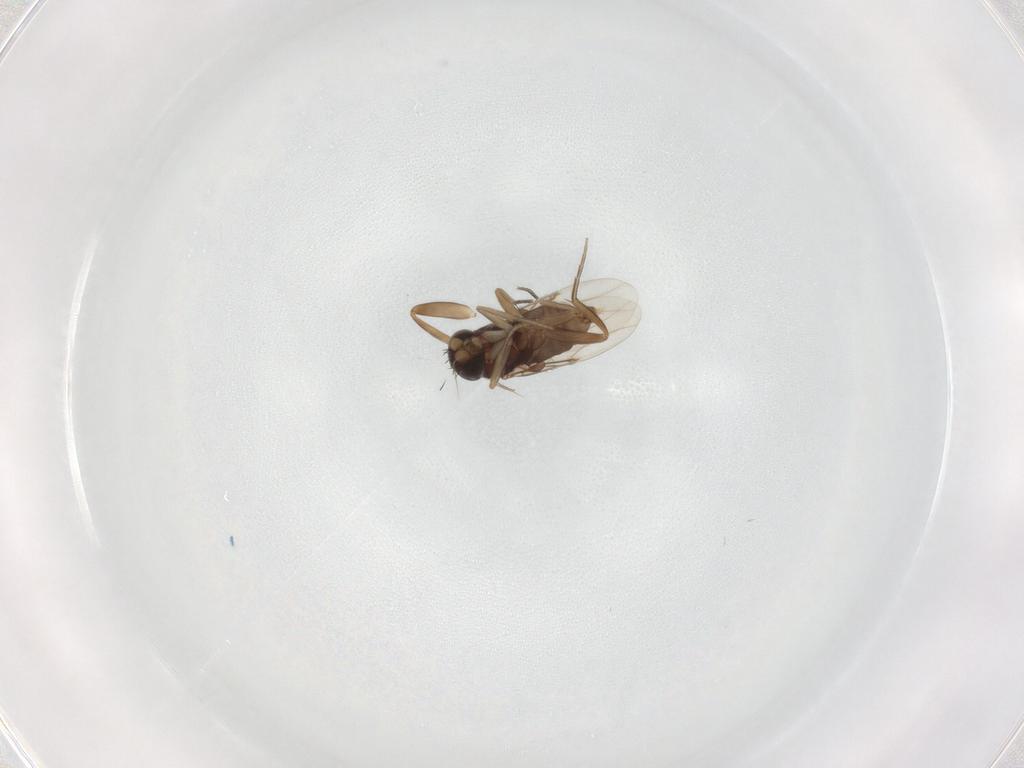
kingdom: Animalia
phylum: Arthropoda
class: Insecta
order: Diptera
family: Phoridae
